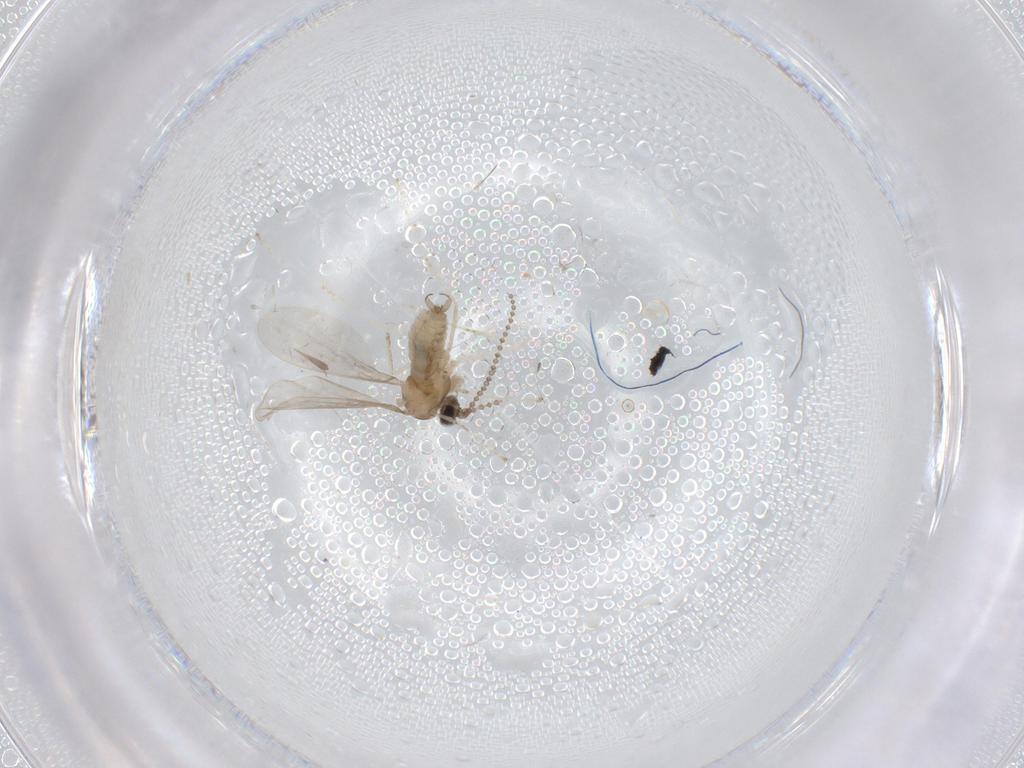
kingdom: Animalia
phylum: Arthropoda
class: Insecta
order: Diptera
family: Cecidomyiidae
